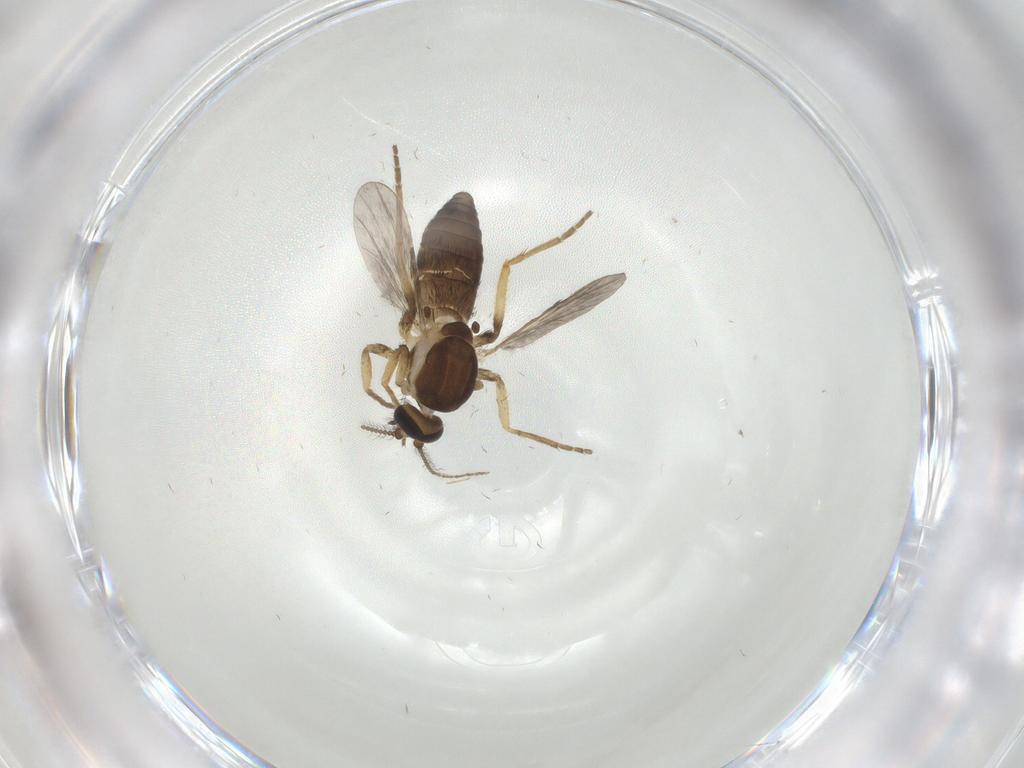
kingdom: Animalia
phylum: Arthropoda
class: Insecta
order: Diptera
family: Ceratopogonidae
